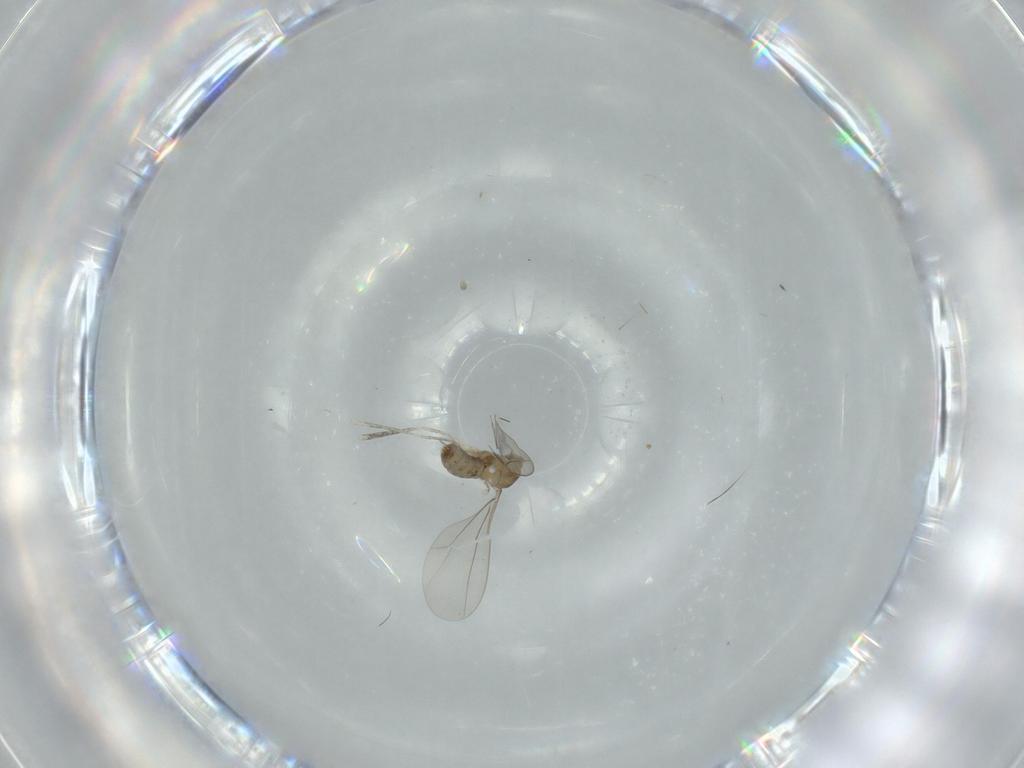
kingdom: Animalia
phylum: Arthropoda
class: Insecta
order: Diptera
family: Cecidomyiidae
